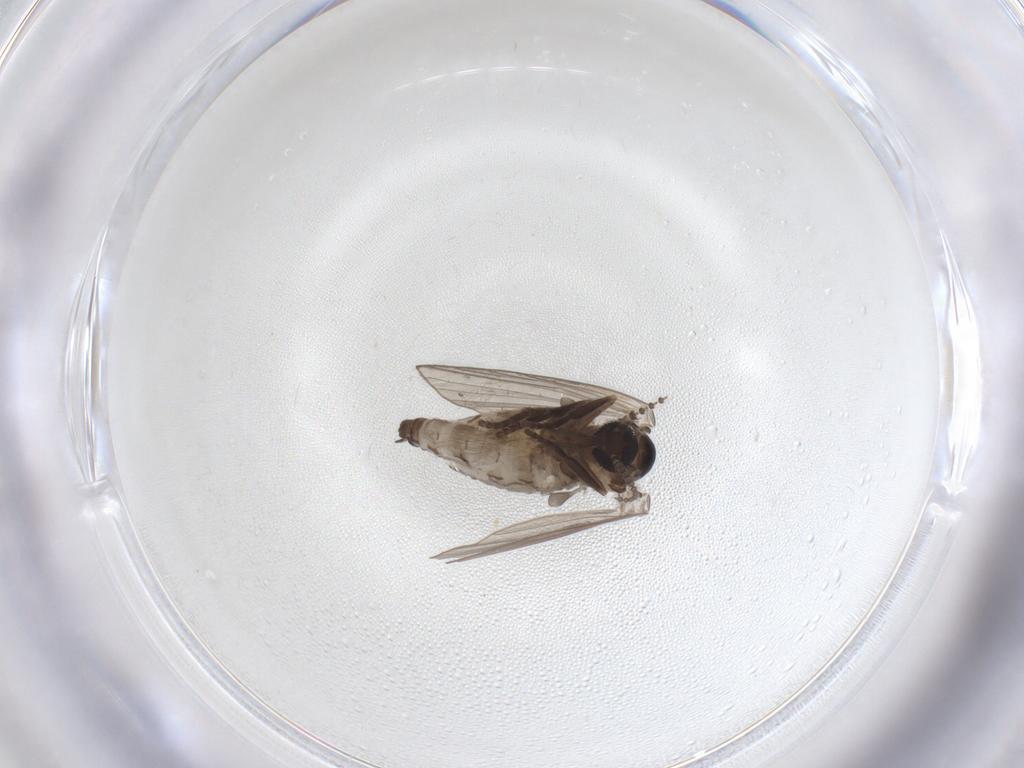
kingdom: Animalia
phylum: Arthropoda
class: Insecta
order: Diptera
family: Psychodidae
